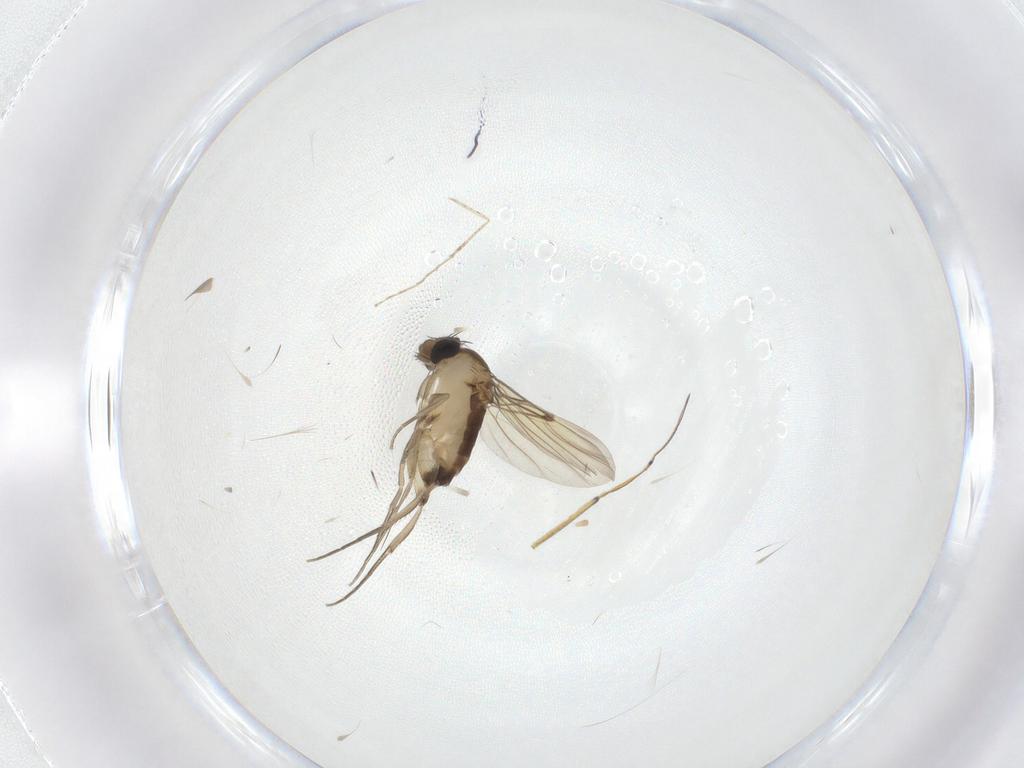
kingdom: Animalia
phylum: Arthropoda
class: Insecta
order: Diptera
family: Phoridae
